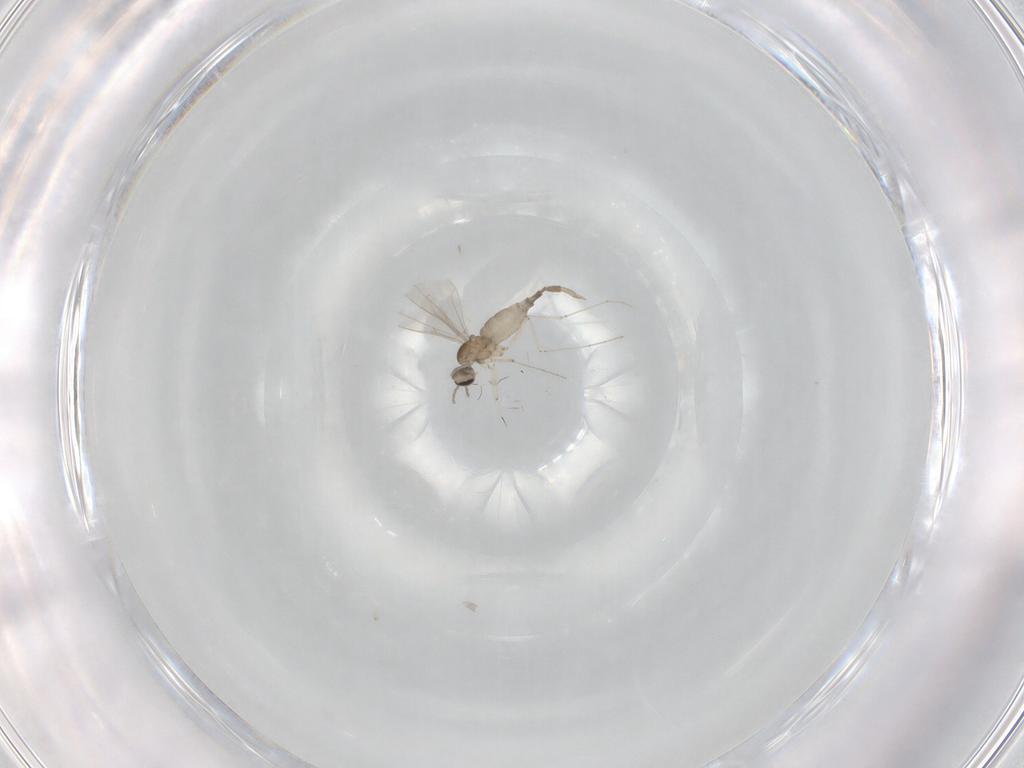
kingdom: Animalia
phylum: Arthropoda
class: Insecta
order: Diptera
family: Cecidomyiidae
